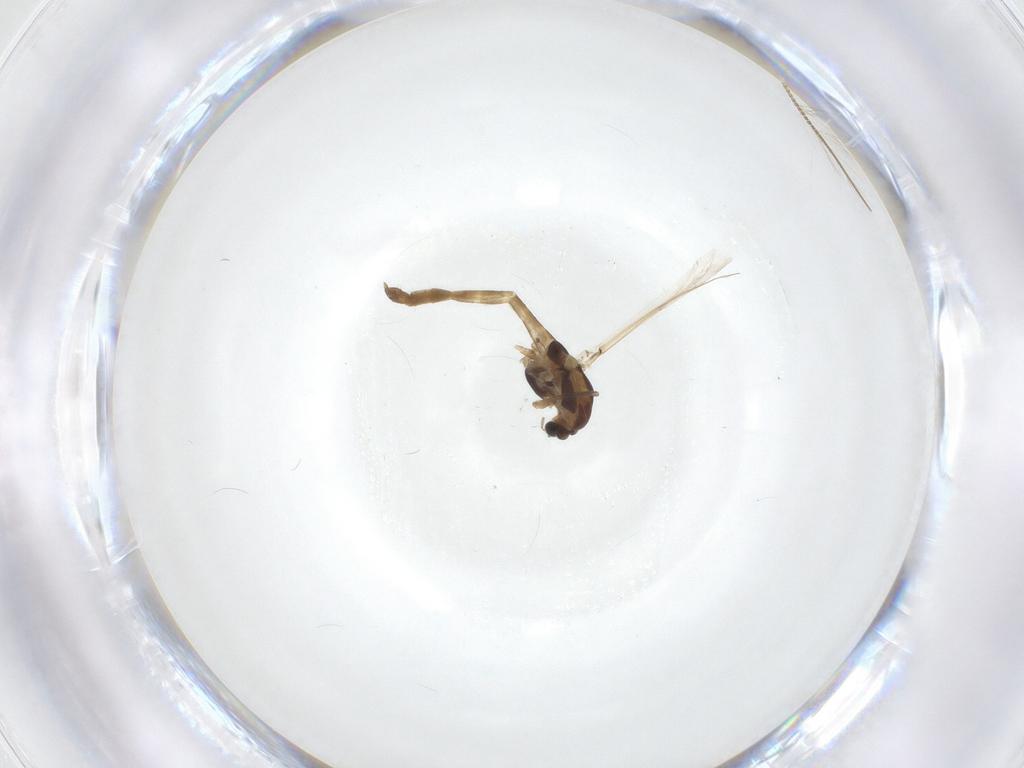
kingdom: Animalia
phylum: Arthropoda
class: Insecta
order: Diptera
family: Chironomidae
